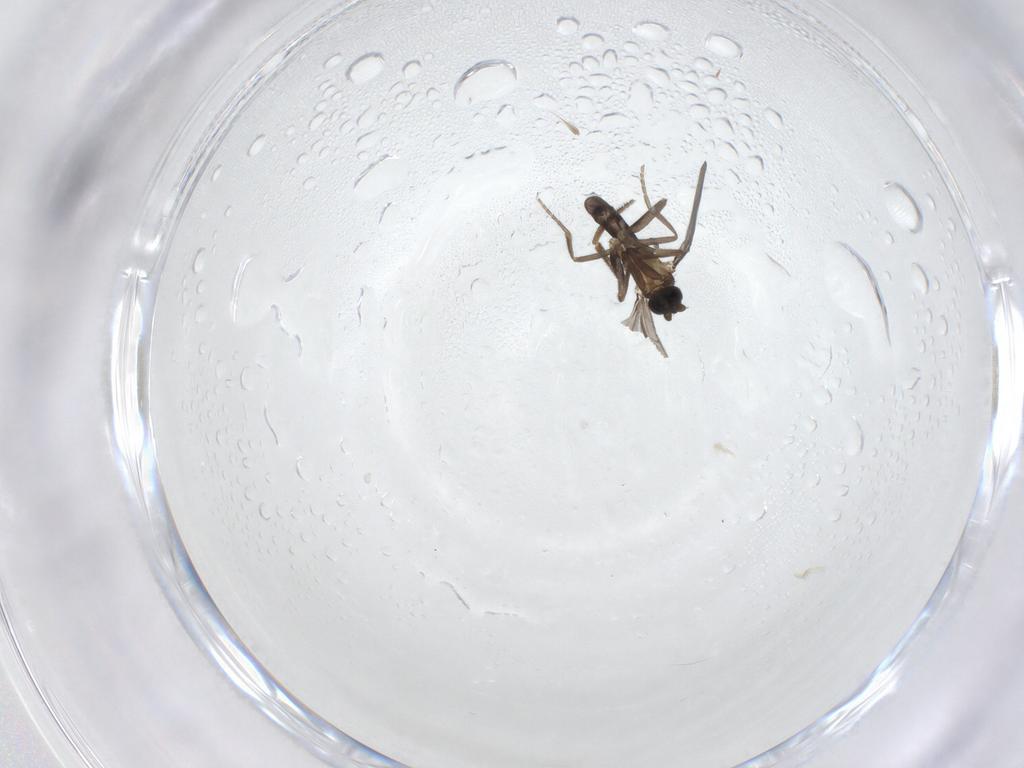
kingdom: Animalia
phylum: Arthropoda
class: Insecta
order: Diptera
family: Phoridae
